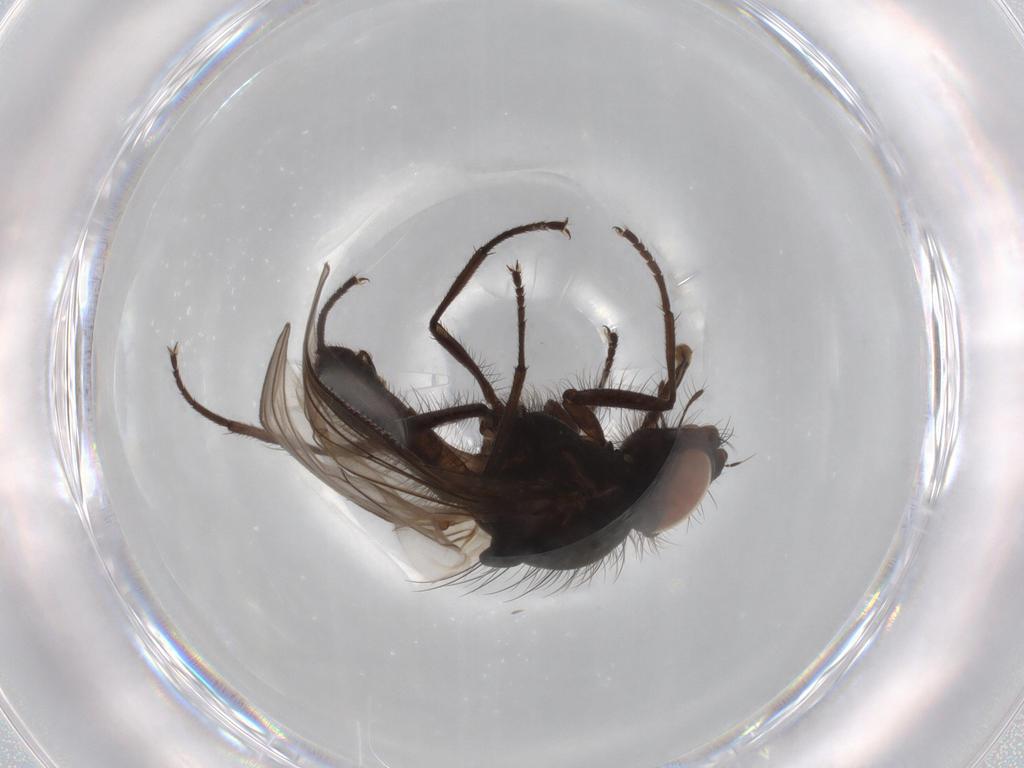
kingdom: Animalia
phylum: Arthropoda
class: Insecta
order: Diptera
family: Anthomyiidae
